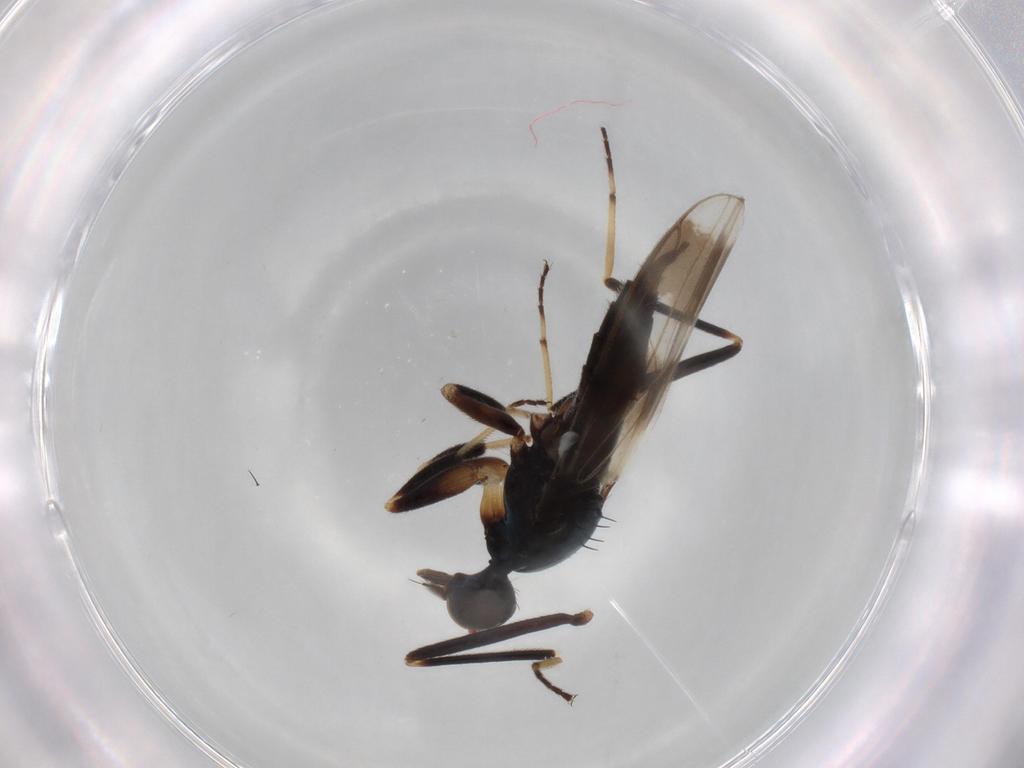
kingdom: Animalia
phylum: Arthropoda
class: Insecta
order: Diptera
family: Hybotidae
